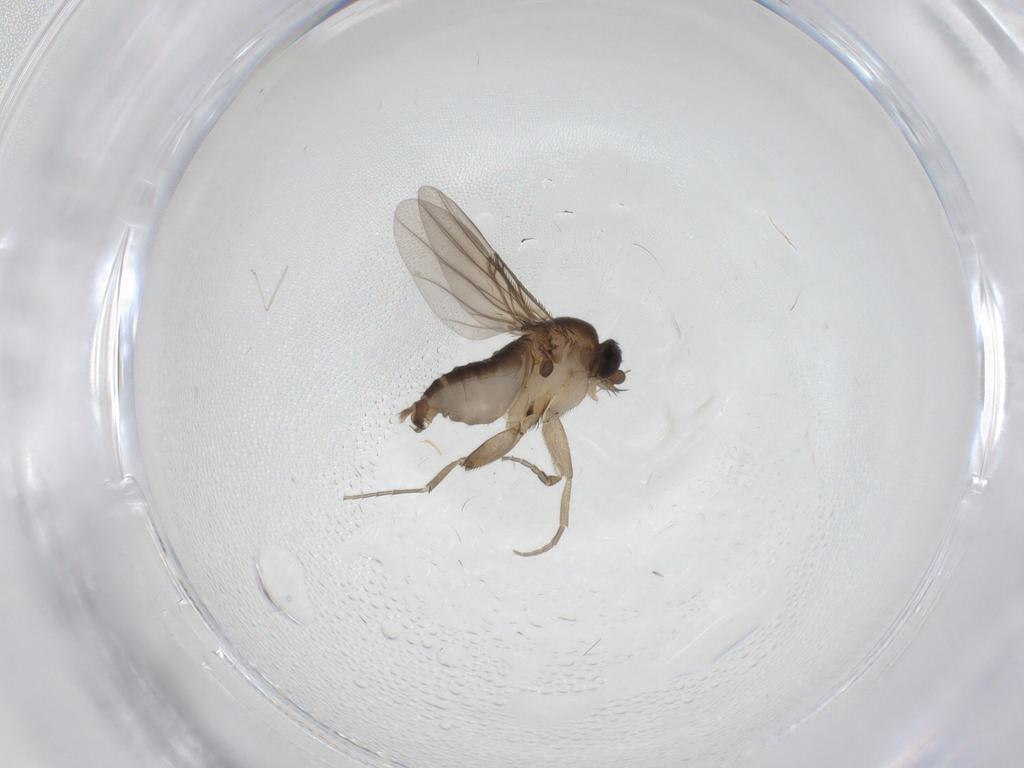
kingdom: Animalia
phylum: Arthropoda
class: Insecta
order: Diptera
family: Phoridae
